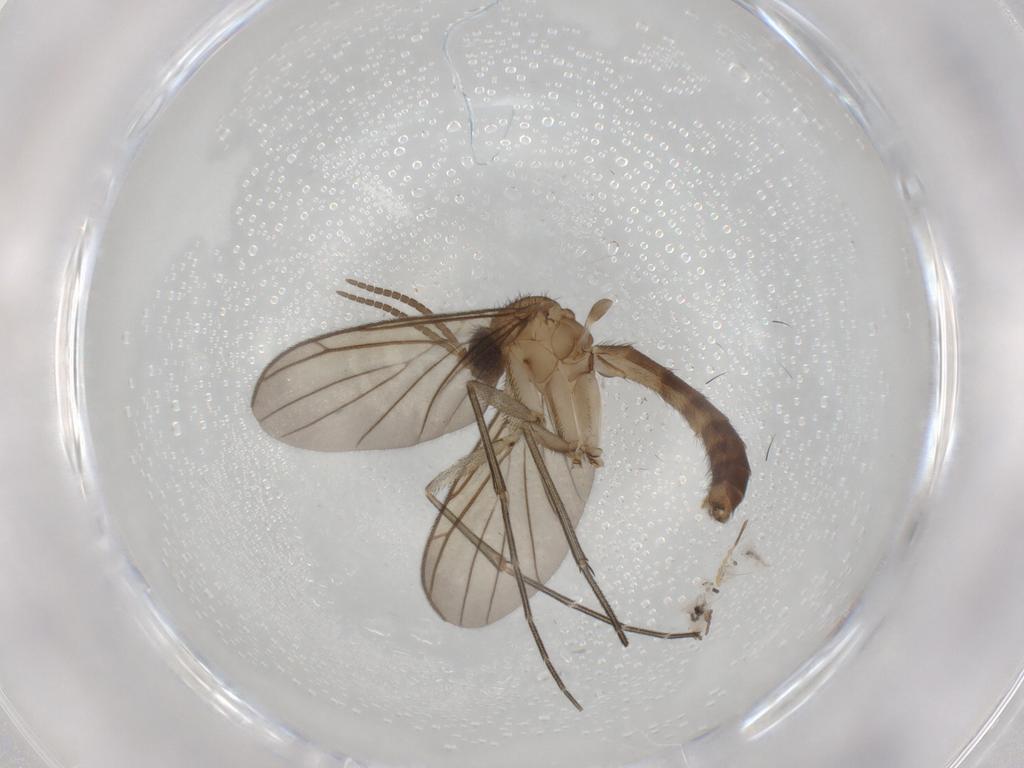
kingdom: Animalia
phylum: Arthropoda
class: Insecta
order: Diptera
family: Keroplatidae
